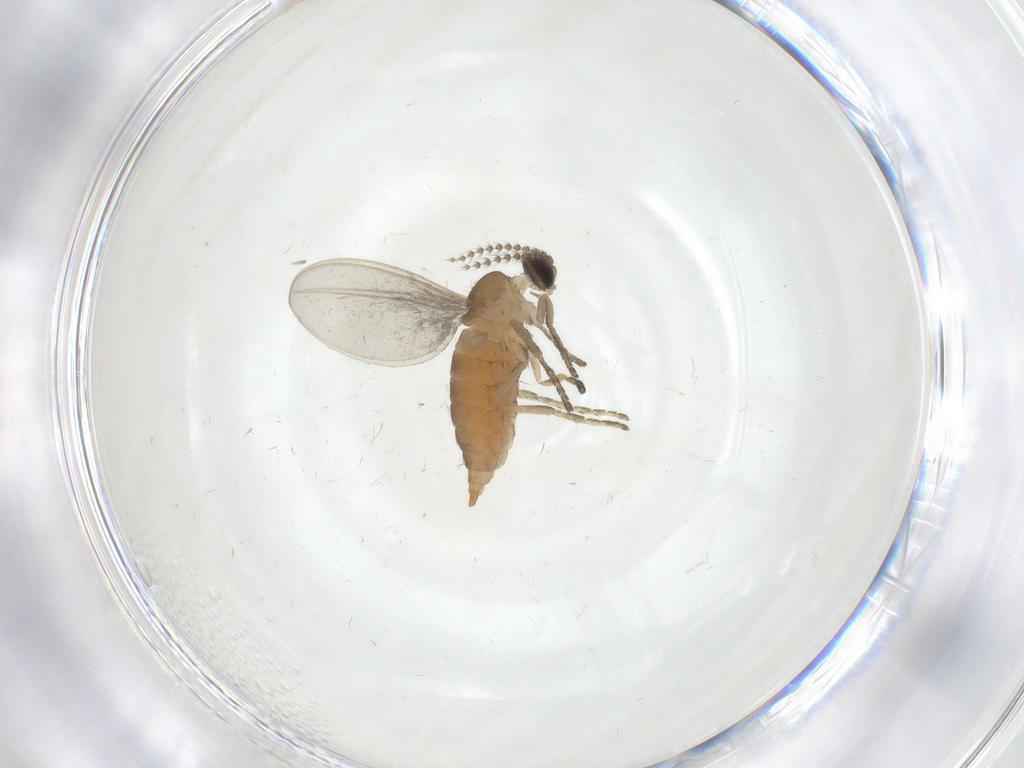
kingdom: Animalia
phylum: Arthropoda
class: Insecta
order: Diptera
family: Cecidomyiidae
